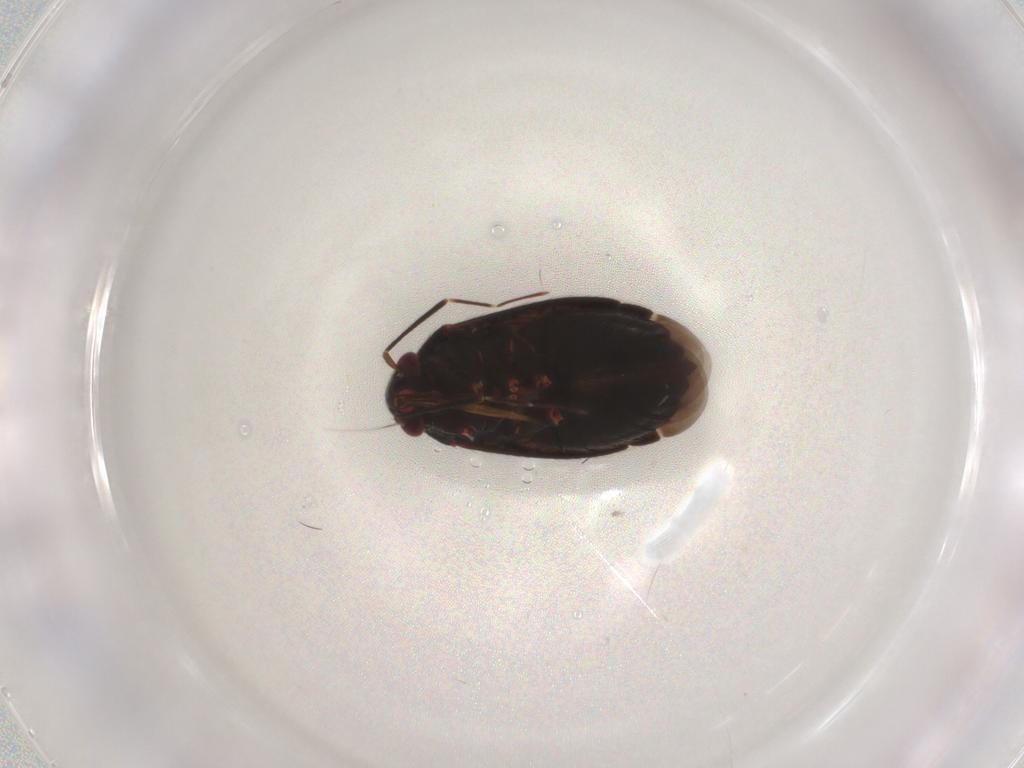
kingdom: Animalia
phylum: Arthropoda
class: Insecta
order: Hemiptera
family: Miridae
